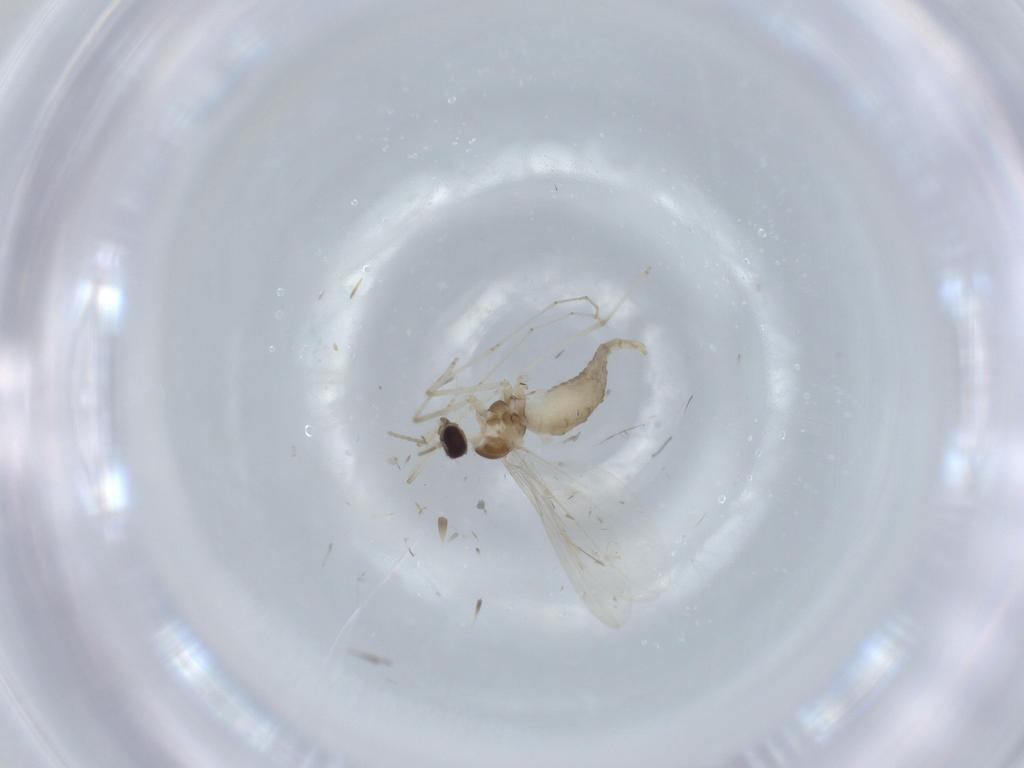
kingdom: Animalia
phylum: Arthropoda
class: Insecta
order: Diptera
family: Cecidomyiidae
